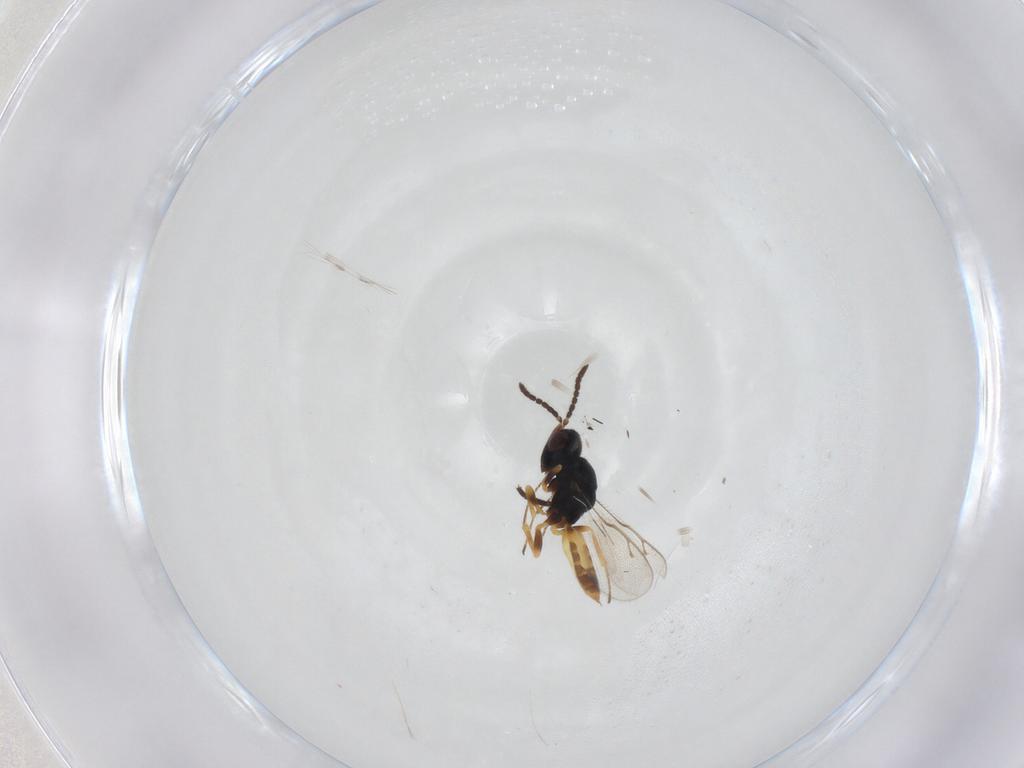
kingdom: Animalia
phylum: Arthropoda
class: Insecta
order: Hymenoptera
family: Pteromalidae
